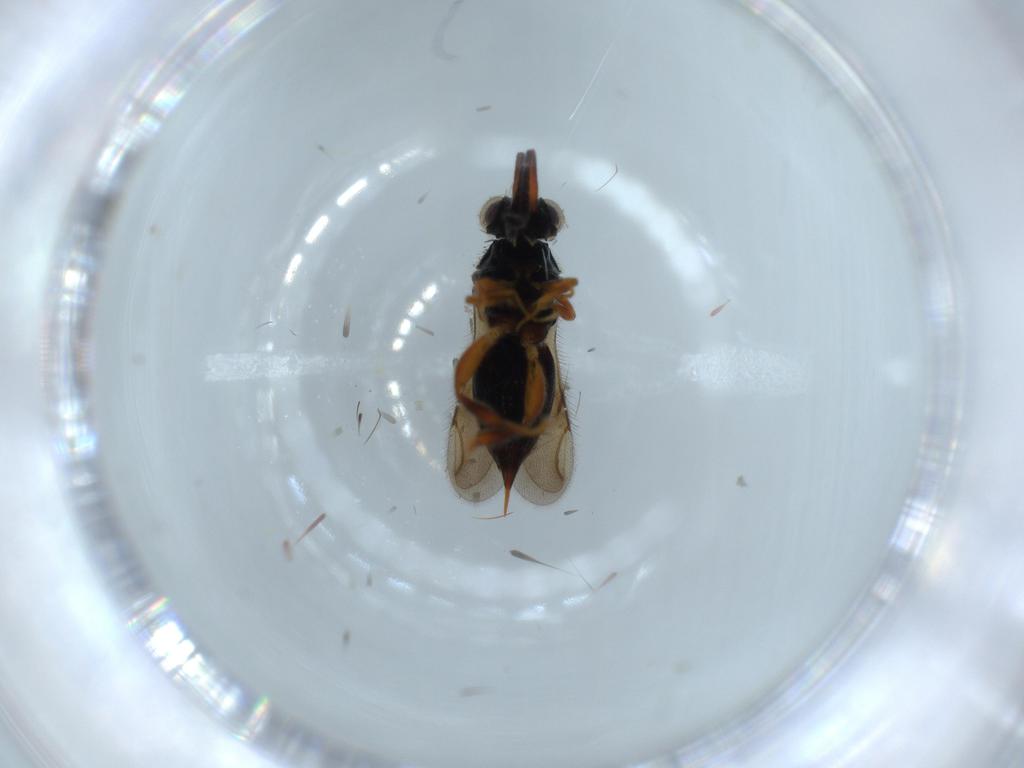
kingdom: Animalia
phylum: Arthropoda
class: Insecta
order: Hymenoptera
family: Ceraphronidae
